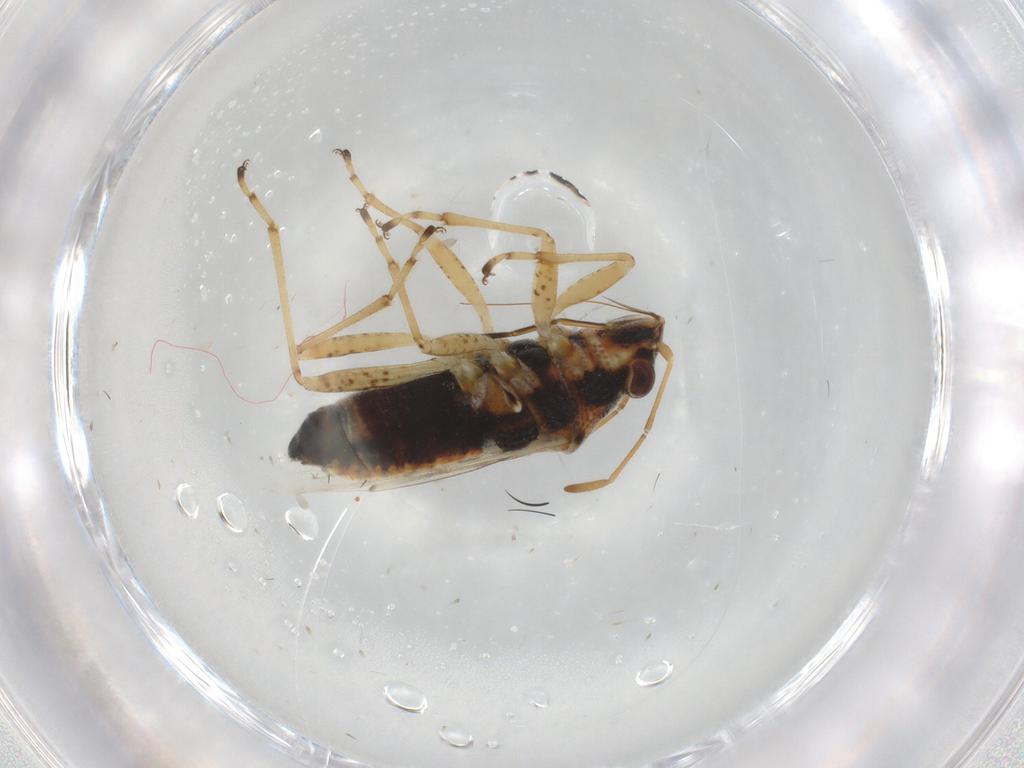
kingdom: Animalia
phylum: Arthropoda
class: Insecta
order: Hemiptera
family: Lygaeidae
